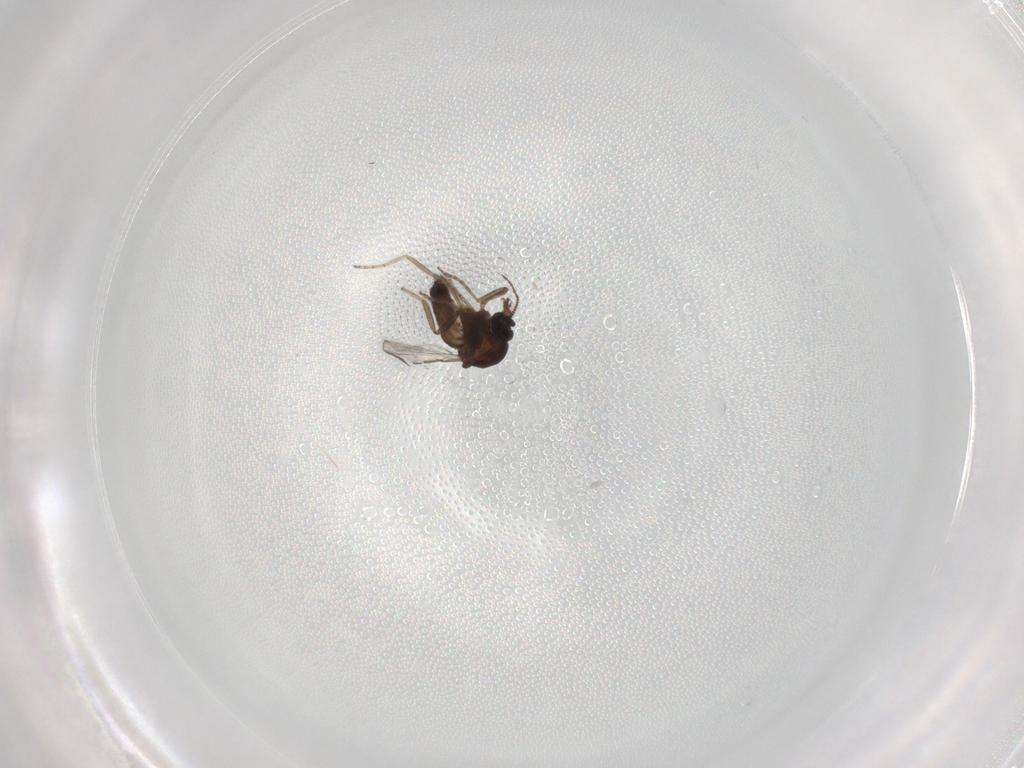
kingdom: Animalia
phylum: Arthropoda
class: Insecta
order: Diptera
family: Ceratopogonidae
